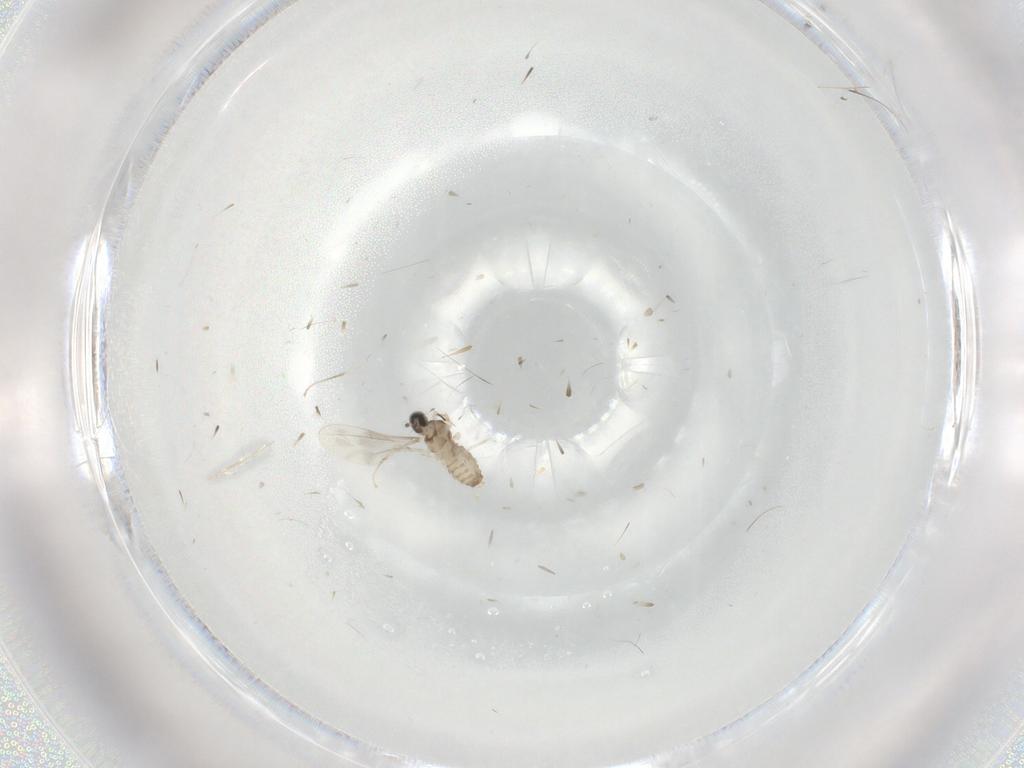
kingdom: Animalia
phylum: Arthropoda
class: Insecta
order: Diptera
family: Cecidomyiidae
